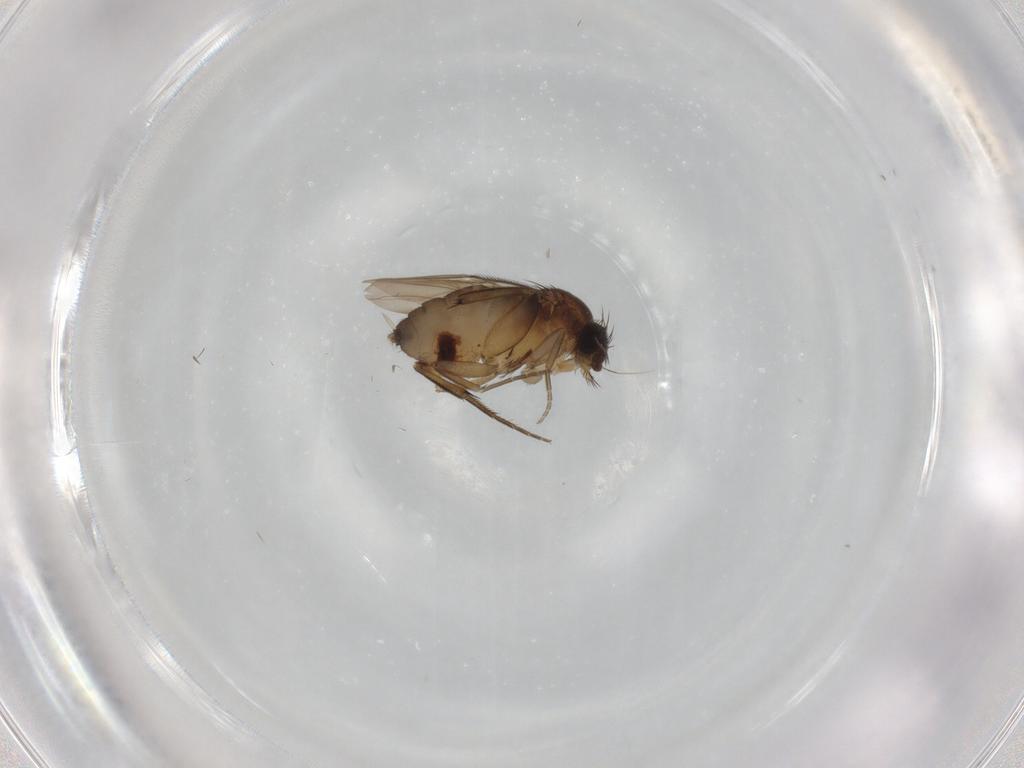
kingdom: Animalia
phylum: Arthropoda
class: Insecta
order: Diptera
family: Phoridae
